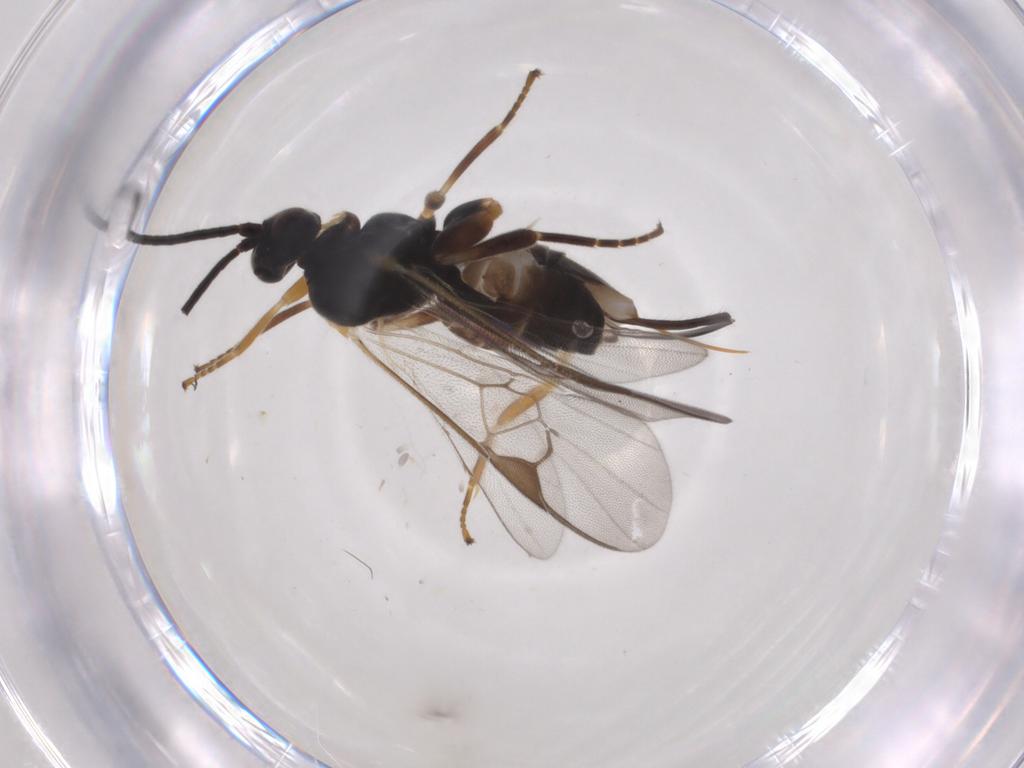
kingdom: Animalia
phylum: Arthropoda
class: Insecta
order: Hymenoptera
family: Braconidae
